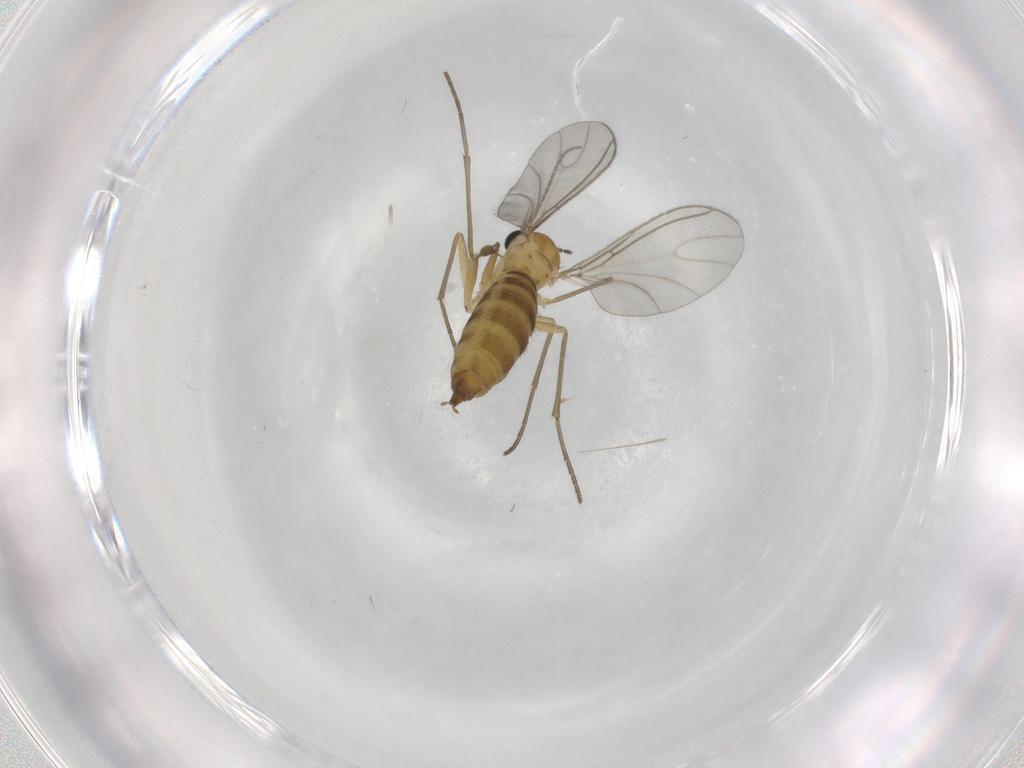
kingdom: Animalia
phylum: Arthropoda
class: Insecta
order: Diptera
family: Sciaridae
